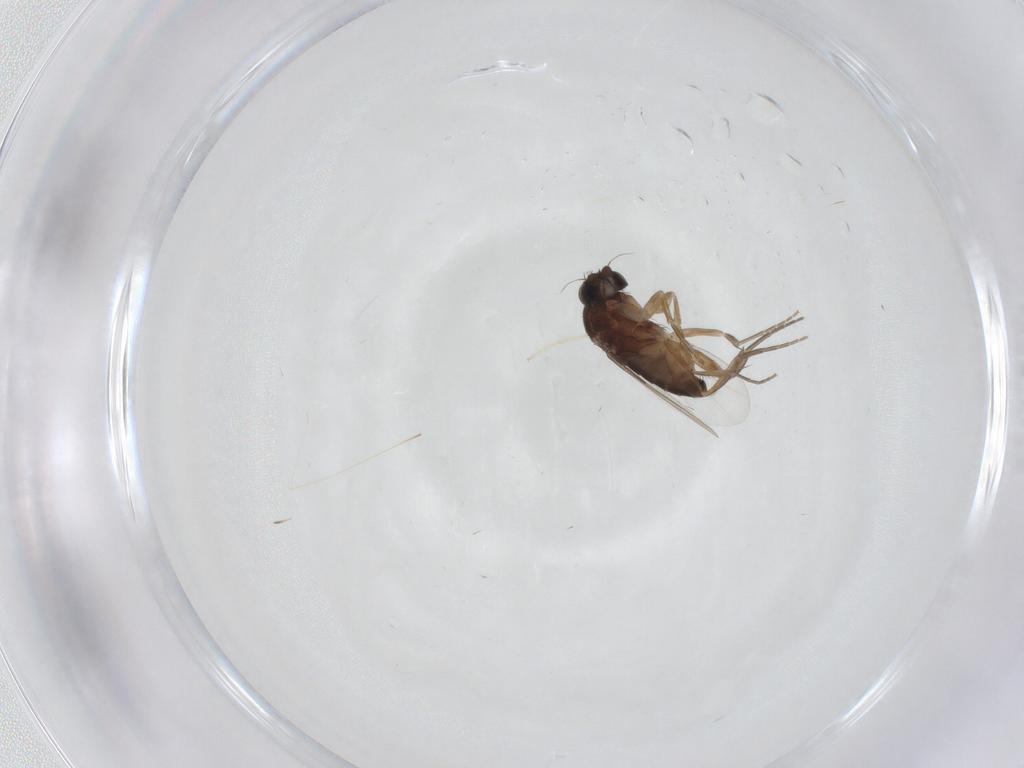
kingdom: Animalia
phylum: Arthropoda
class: Insecta
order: Diptera
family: Phoridae
